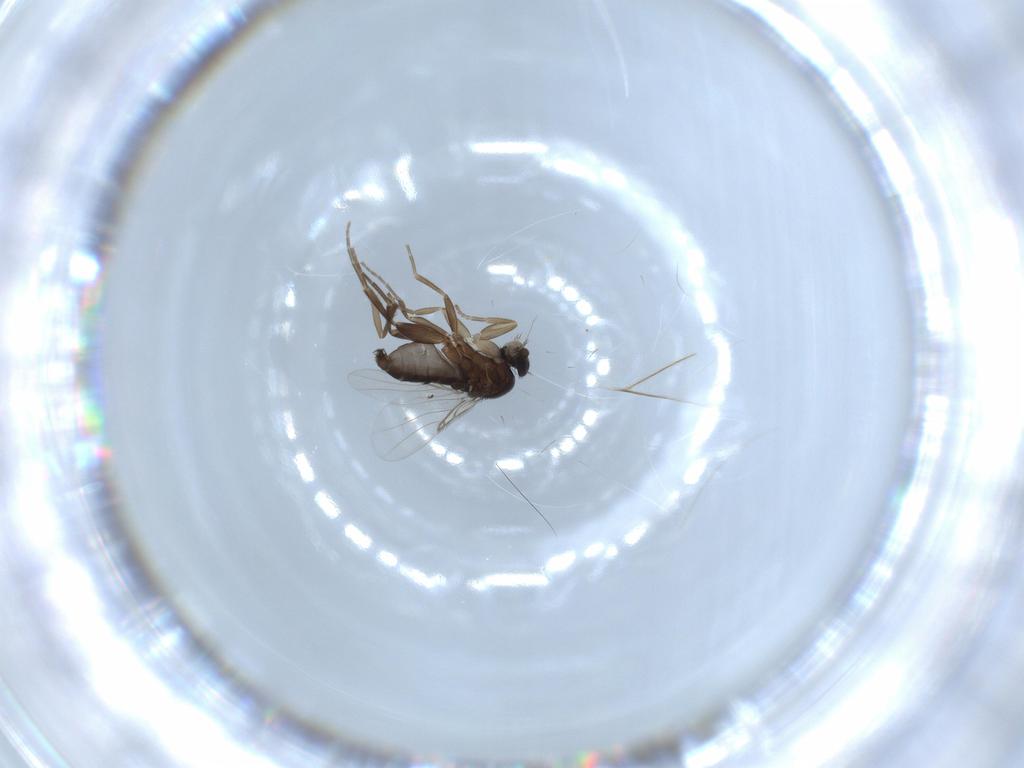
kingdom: Animalia
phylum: Arthropoda
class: Insecta
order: Diptera
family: Phoridae
